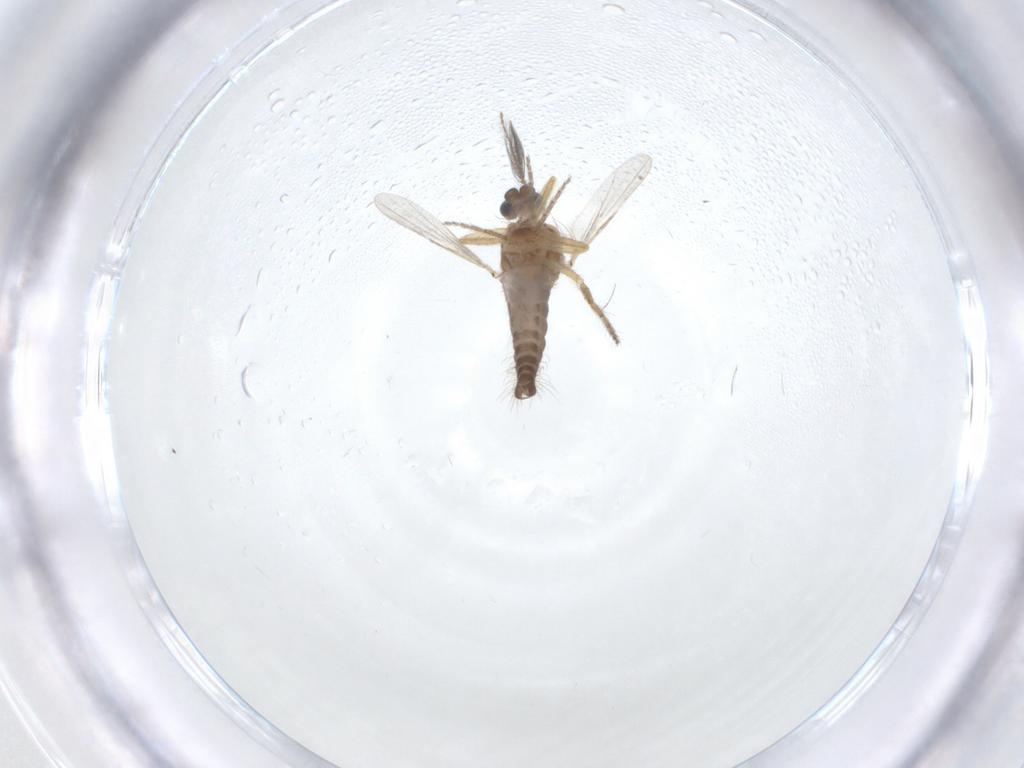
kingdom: Animalia
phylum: Arthropoda
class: Insecta
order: Diptera
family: Ceratopogonidae
